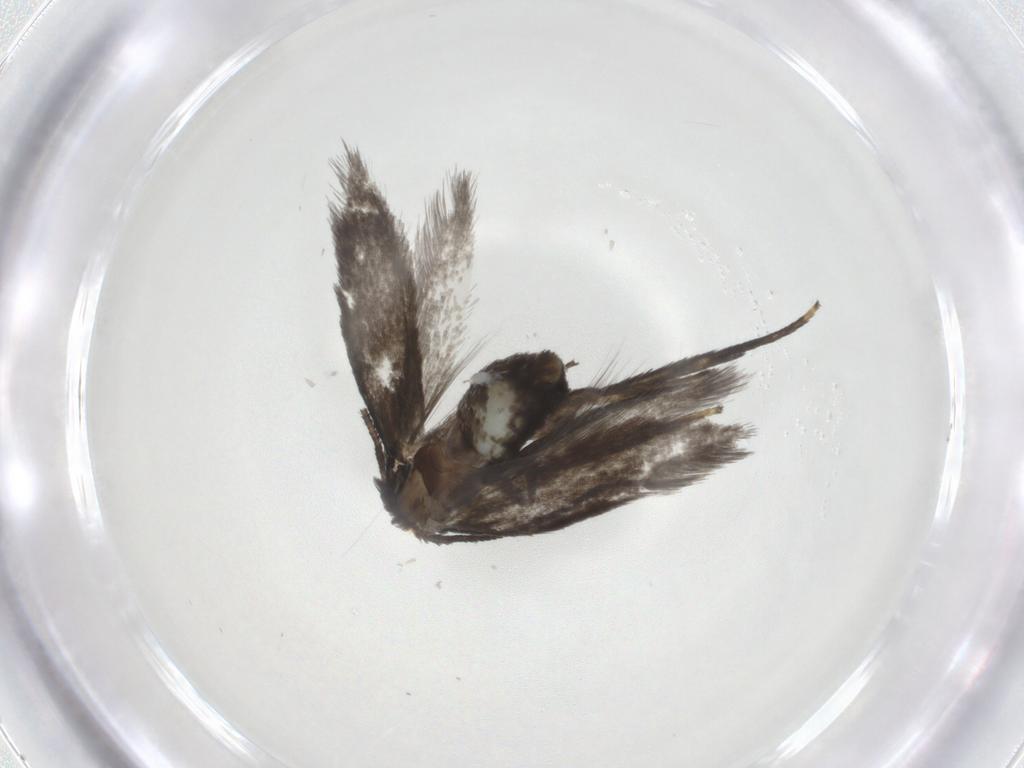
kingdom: Animalia
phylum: Arthropoda
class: Insecta
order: Lepidoptera
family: Nepticulidae
